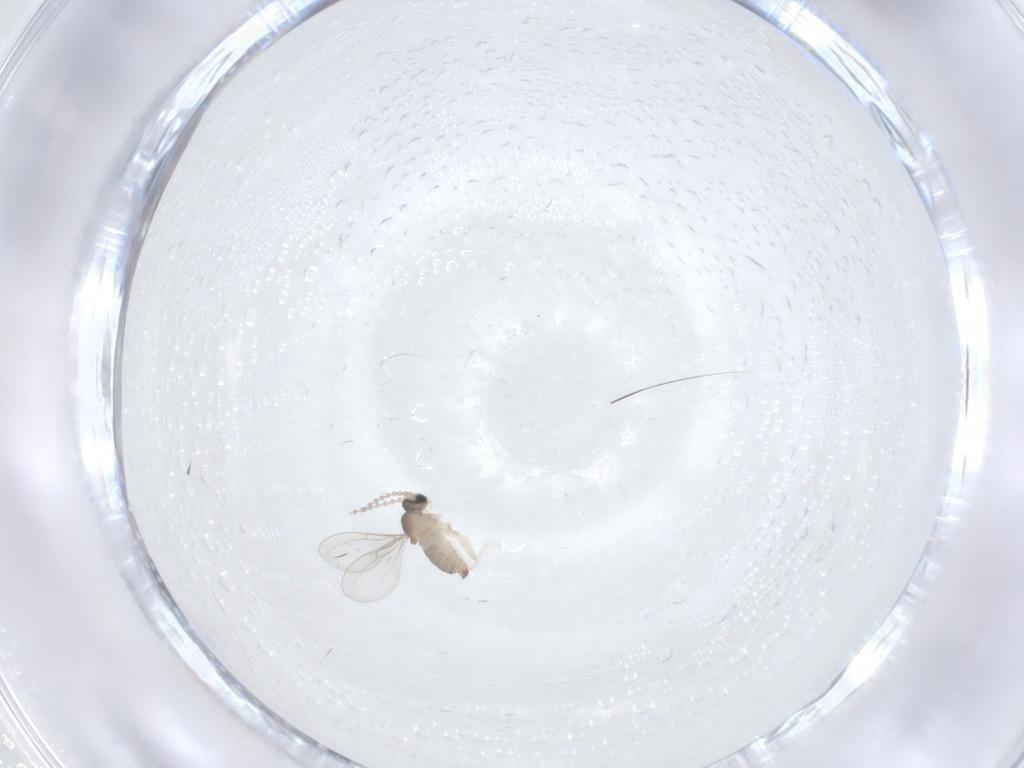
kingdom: Animalia
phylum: Arthropoda
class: Insecta
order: Diptera
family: Cecidomyiidae
